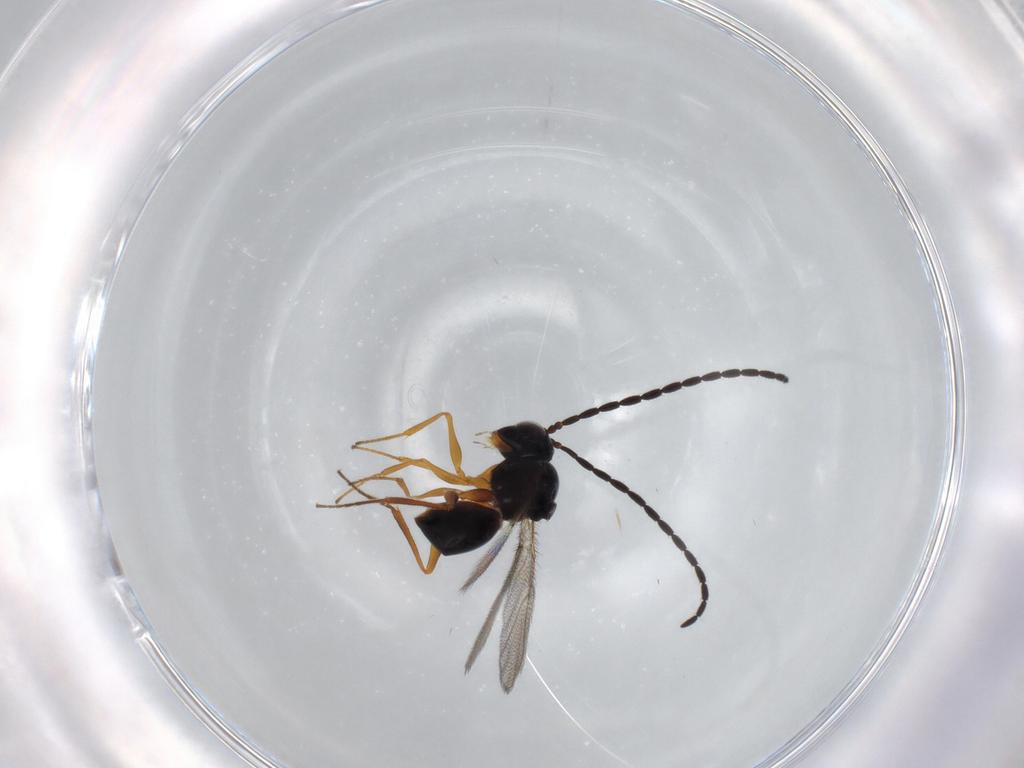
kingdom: Animalia
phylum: Arthropoda
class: Insecta
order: Hymenoptera
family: Figitidae
